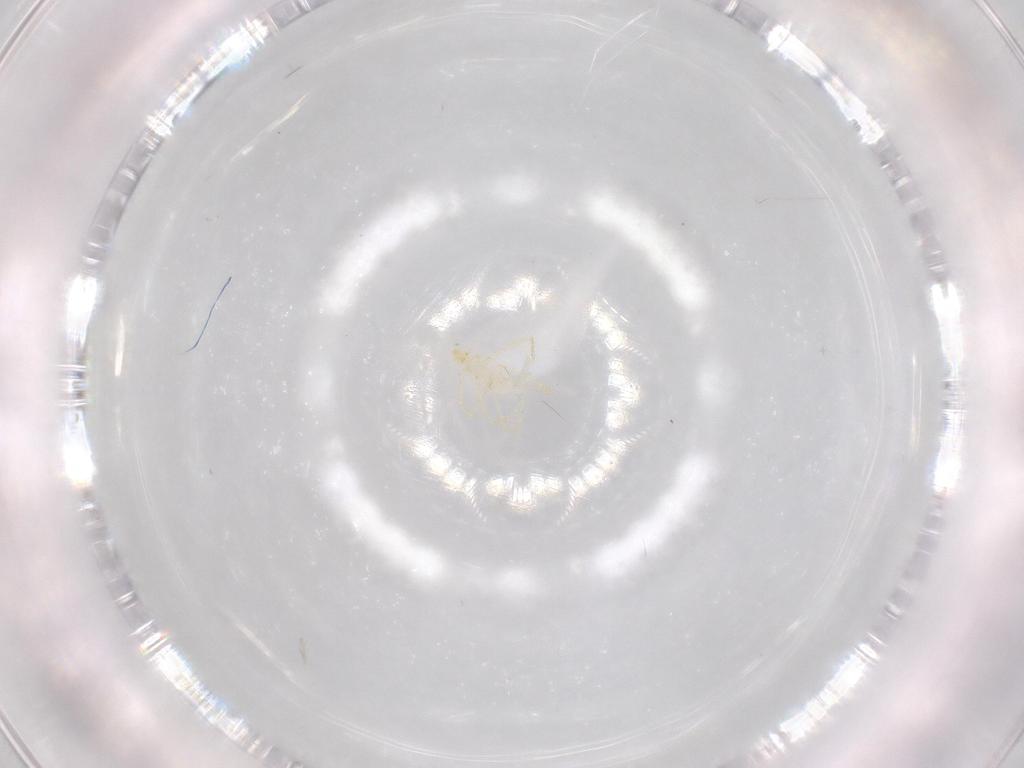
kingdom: Animalia
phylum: Arthropoda
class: Arachnida
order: Trombidiformes
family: Erythraeidae
